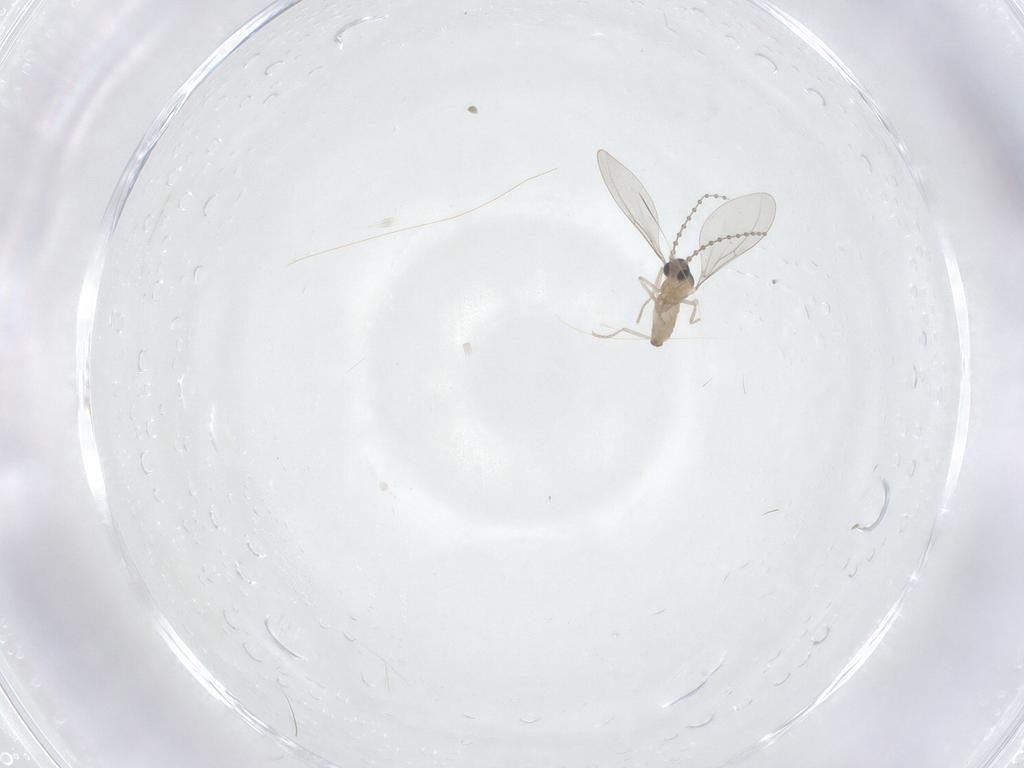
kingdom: Animalia
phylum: Arthropoda
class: Insecta
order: Diptera
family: Cecidomyiidae
